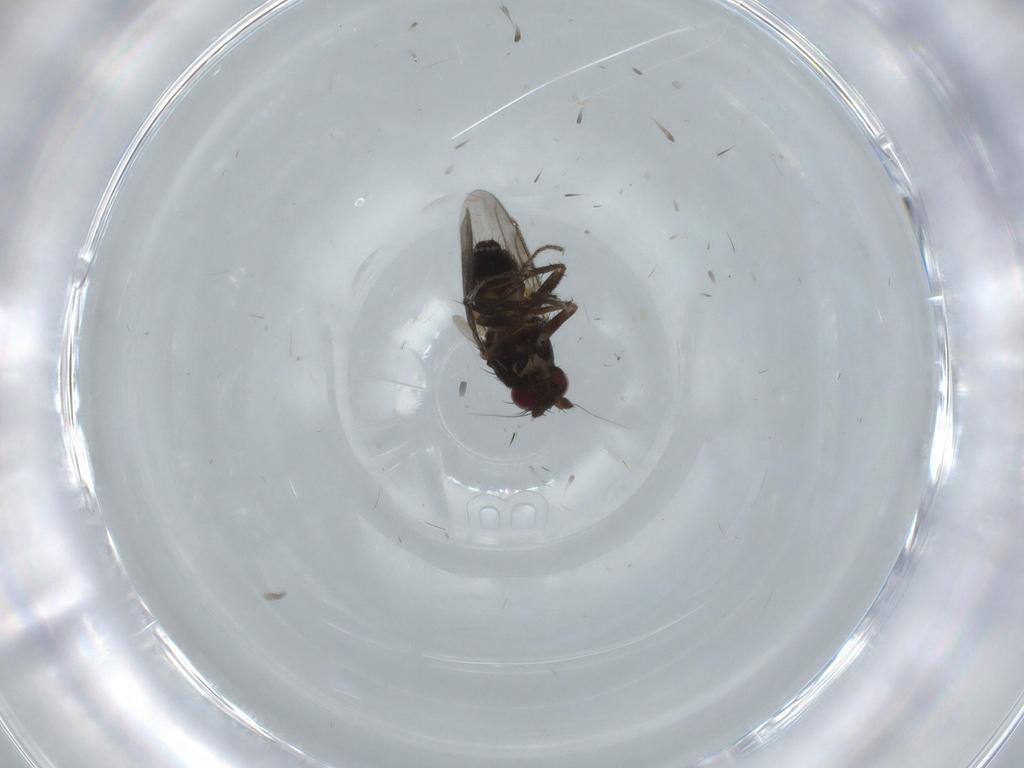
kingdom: Animalia
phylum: Arthropoda
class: Insecta
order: Diptera
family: Sphaeroceridae
